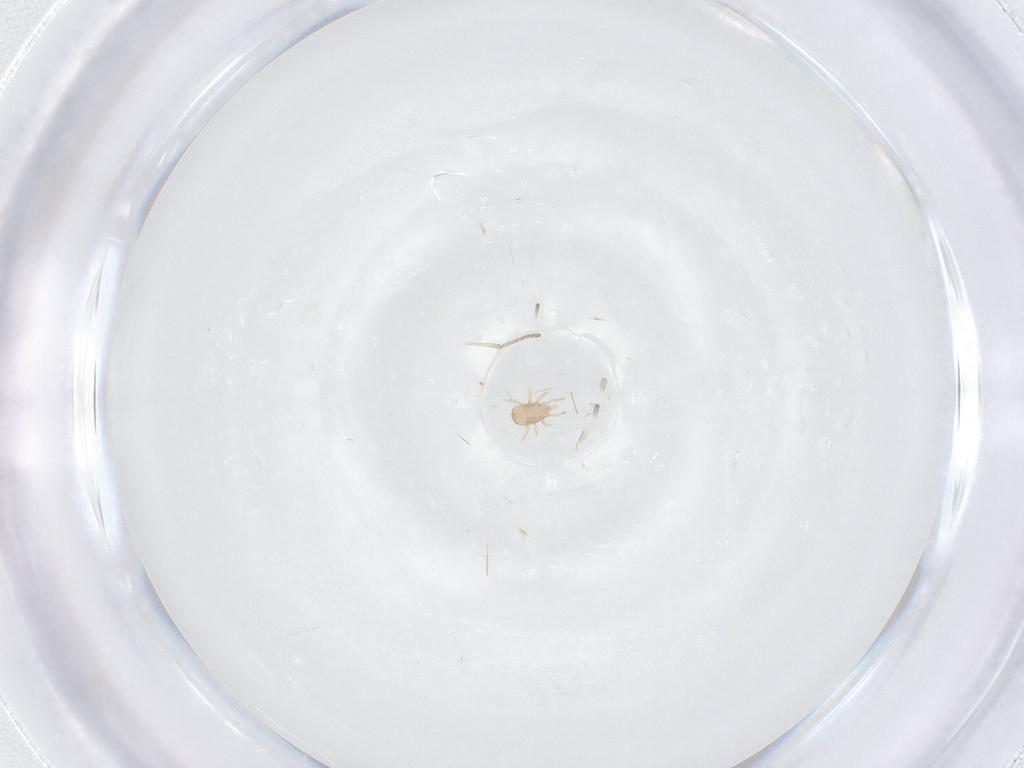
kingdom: Animalia
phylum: Arthropoda
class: Arachnida
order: Mesostigmata
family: Ascidae
